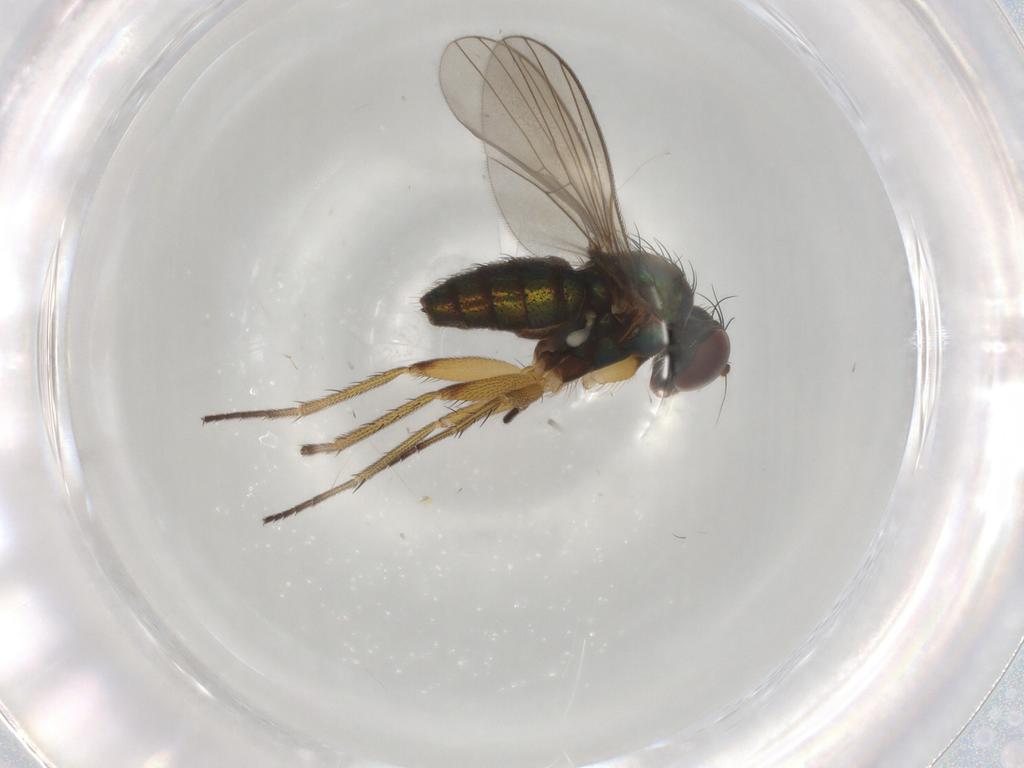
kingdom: Animalia
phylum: Arthropoda
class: Insecta
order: Diptera
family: Dolichopodidae
